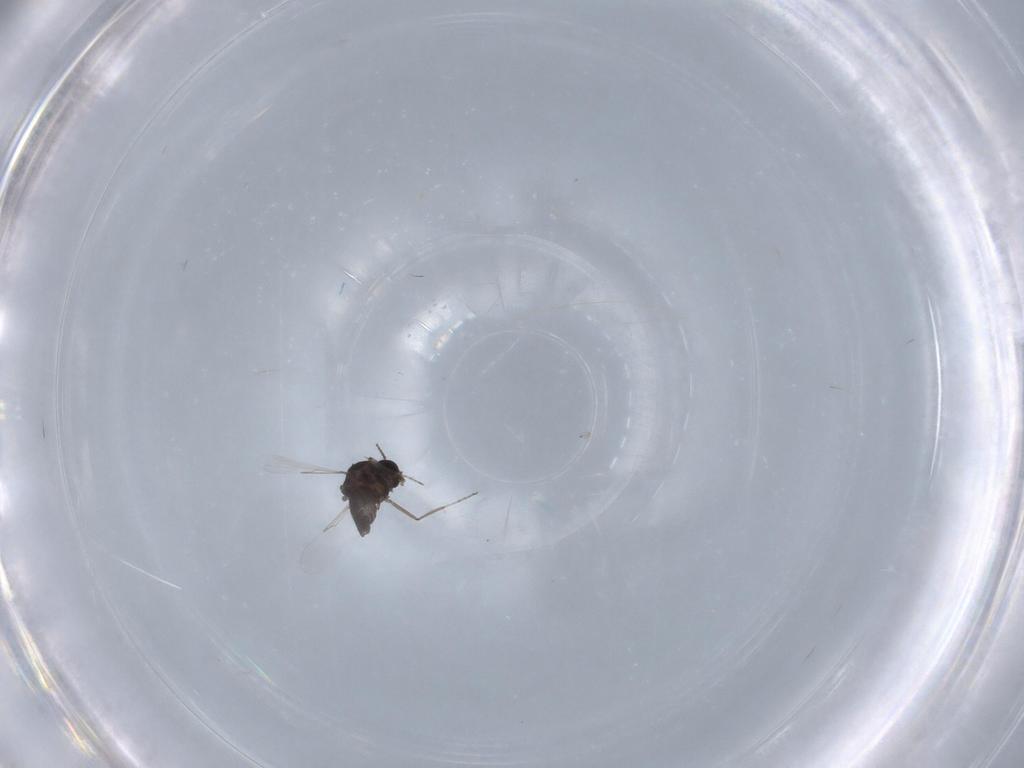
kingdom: Animalia
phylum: Arthropoda
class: Insecta
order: Diptera
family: Ceratopogonidae
